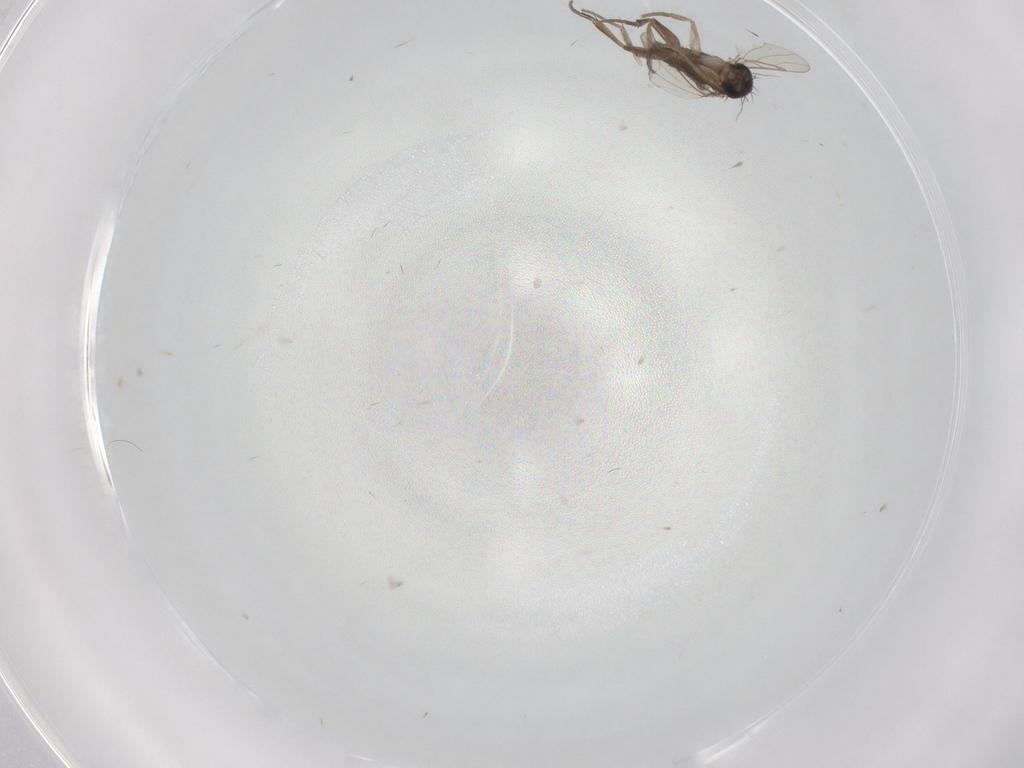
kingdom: Animalia
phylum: Arthropoda
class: Insecta
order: Diptera
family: Phoridae
